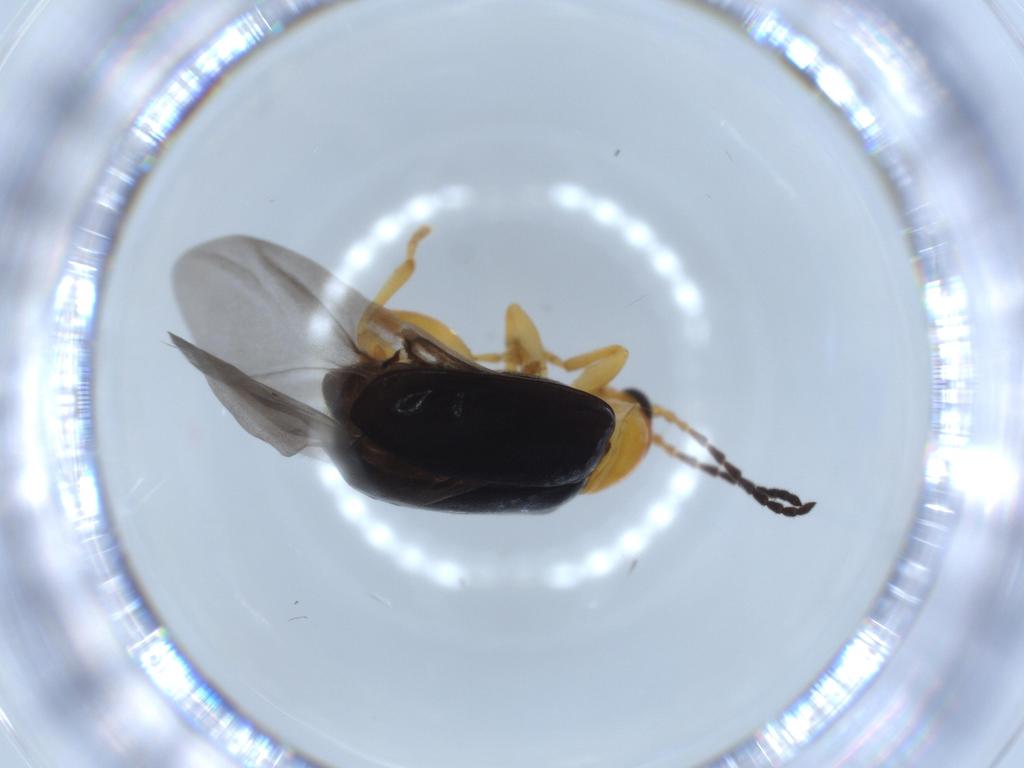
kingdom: Animalia
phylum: Arthropoda
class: Insecta
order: Coleoptera
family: Chrysomelidae
